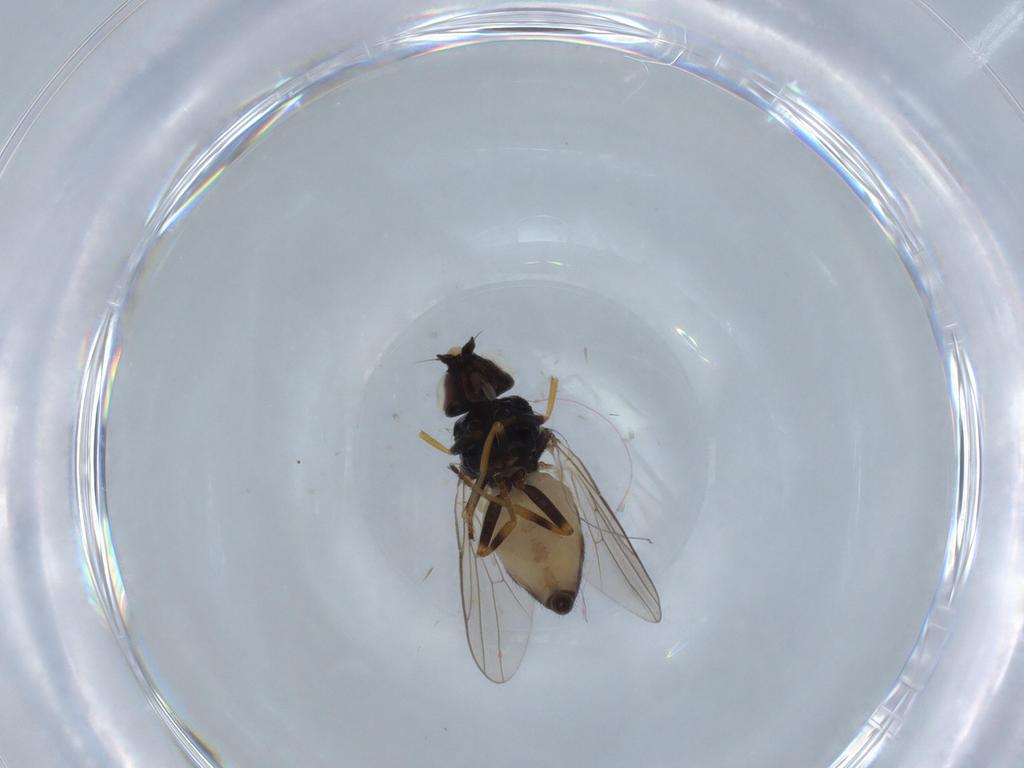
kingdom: Animalia
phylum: Arthropoda
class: Insecta
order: Diptera
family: Chloropidae
